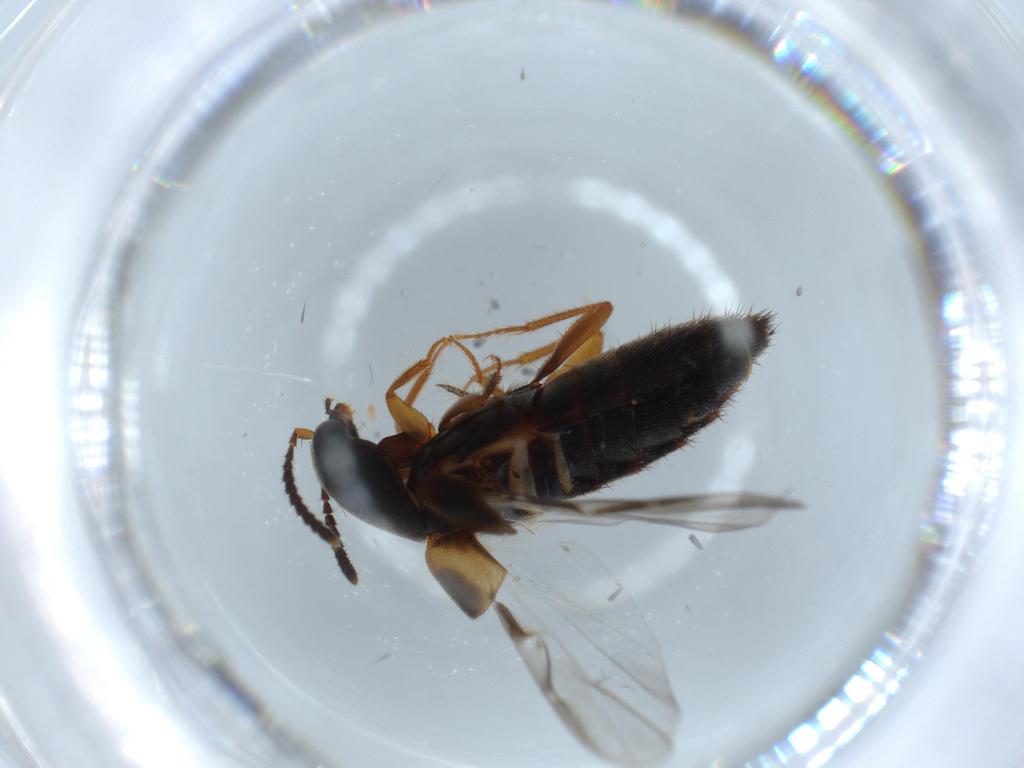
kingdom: Animalia
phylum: Arthropoda
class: Insecta
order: Coleoptera
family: Staphylinidae
